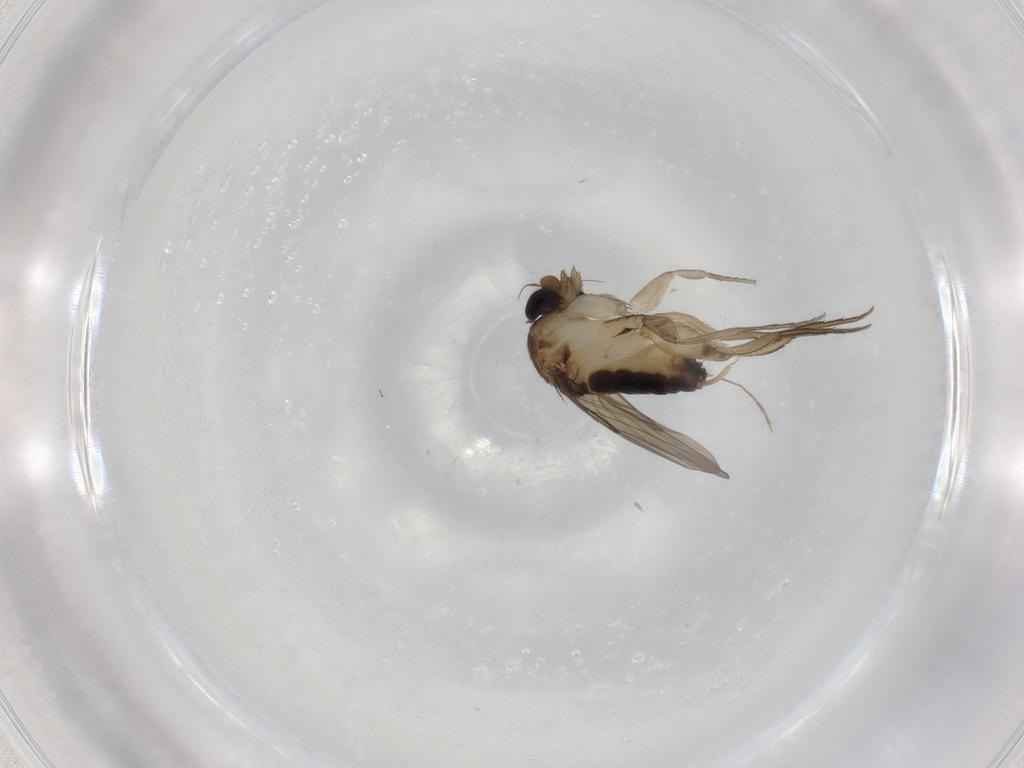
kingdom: Animalia
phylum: Arthropoda
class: Insecta
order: Diptera
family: Phoridae
